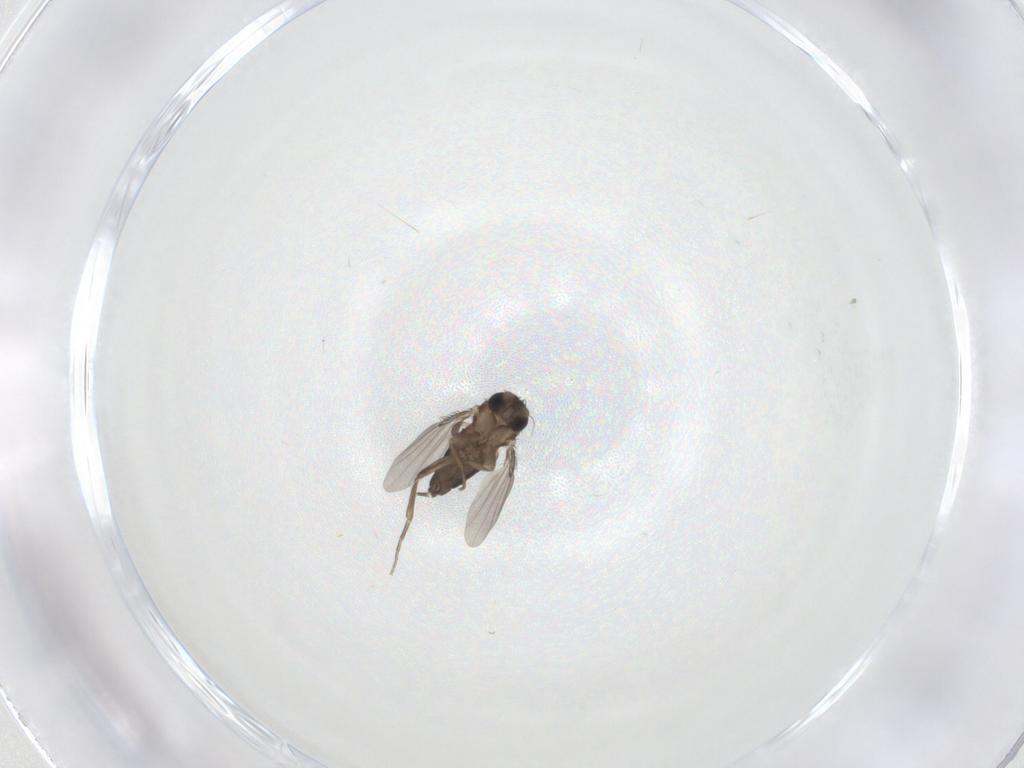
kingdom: Animalia
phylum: Arthropoda
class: Insecta
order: Diptera
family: Phoridae
